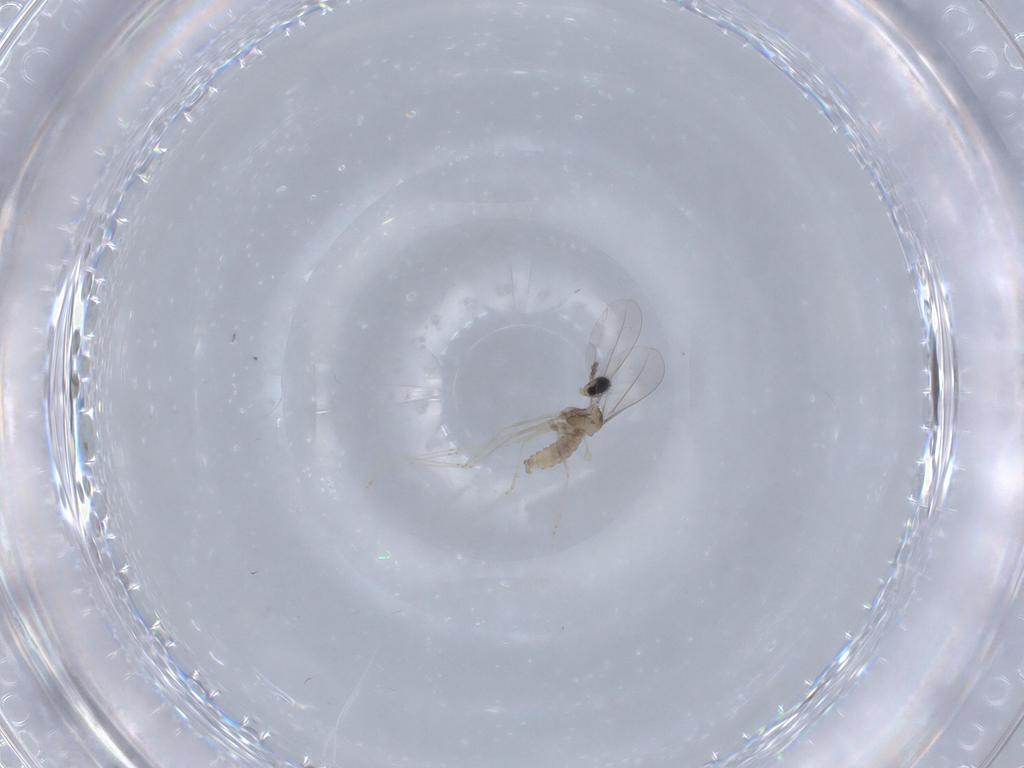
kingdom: Animalia
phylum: Arthropoda
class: Insecta
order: Diptera
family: Cecidomyiidae
